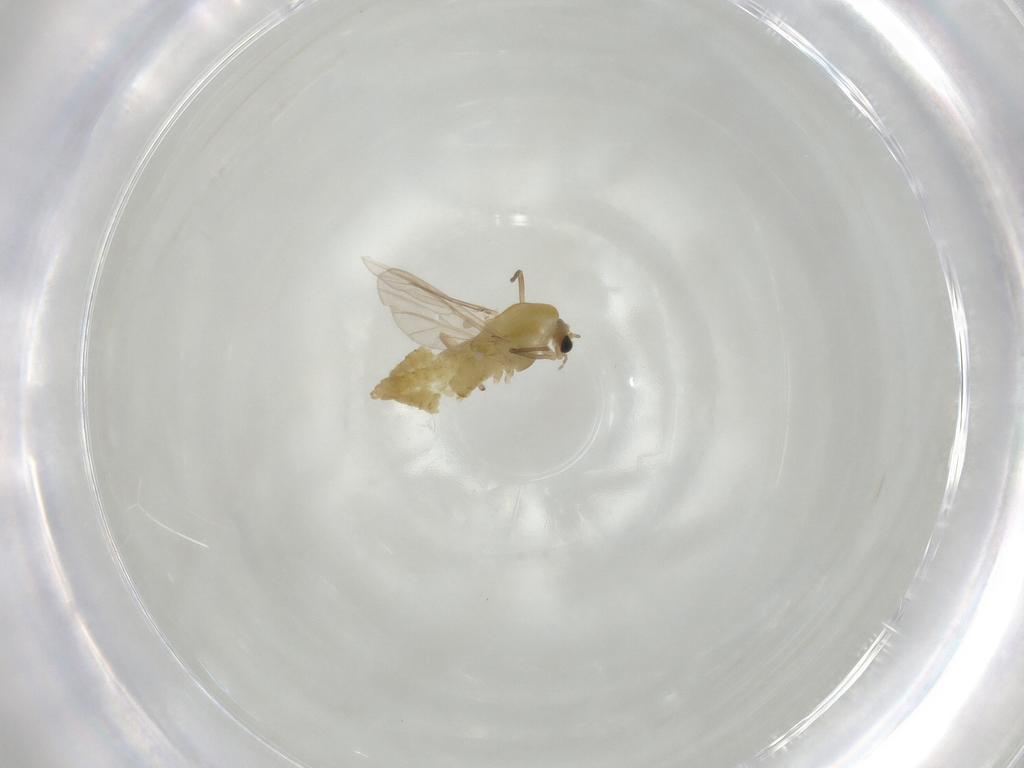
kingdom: Animalia
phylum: Arthropoda
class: Insecta
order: Diptera
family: Chironomidae
